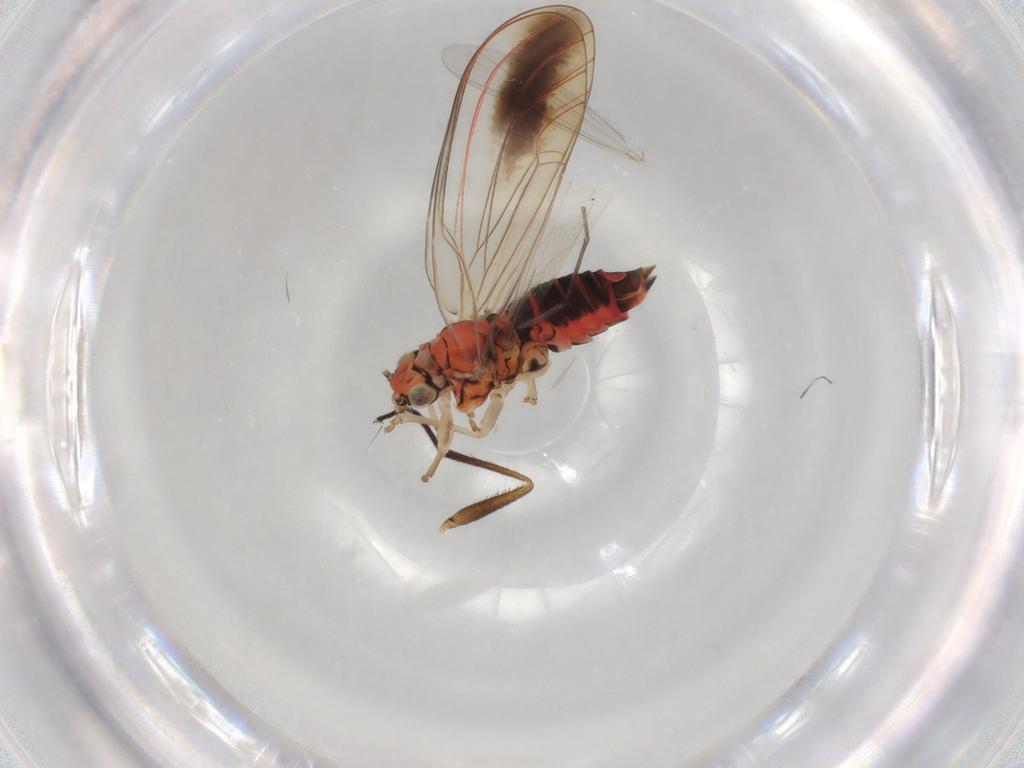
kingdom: Animalia
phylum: Arthropoda
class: Insecta
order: Hemiptera
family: Aphalaridae
